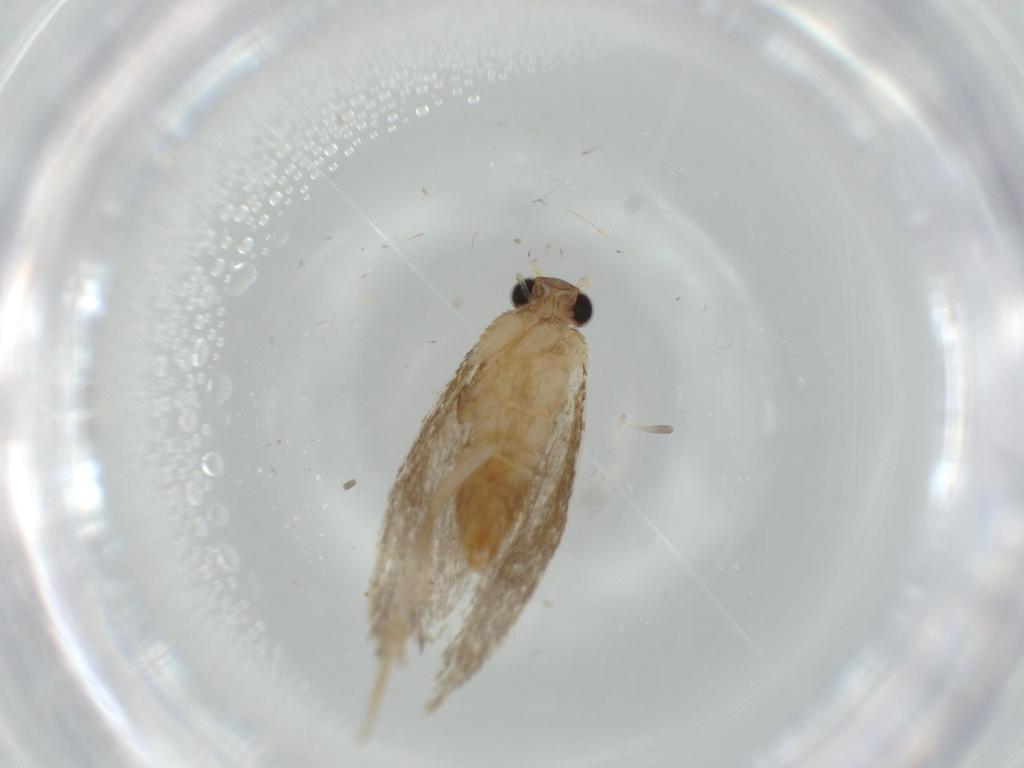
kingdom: Animalia
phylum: Arthropoda
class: Insecta
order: Lepidoptera
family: Tineidae
